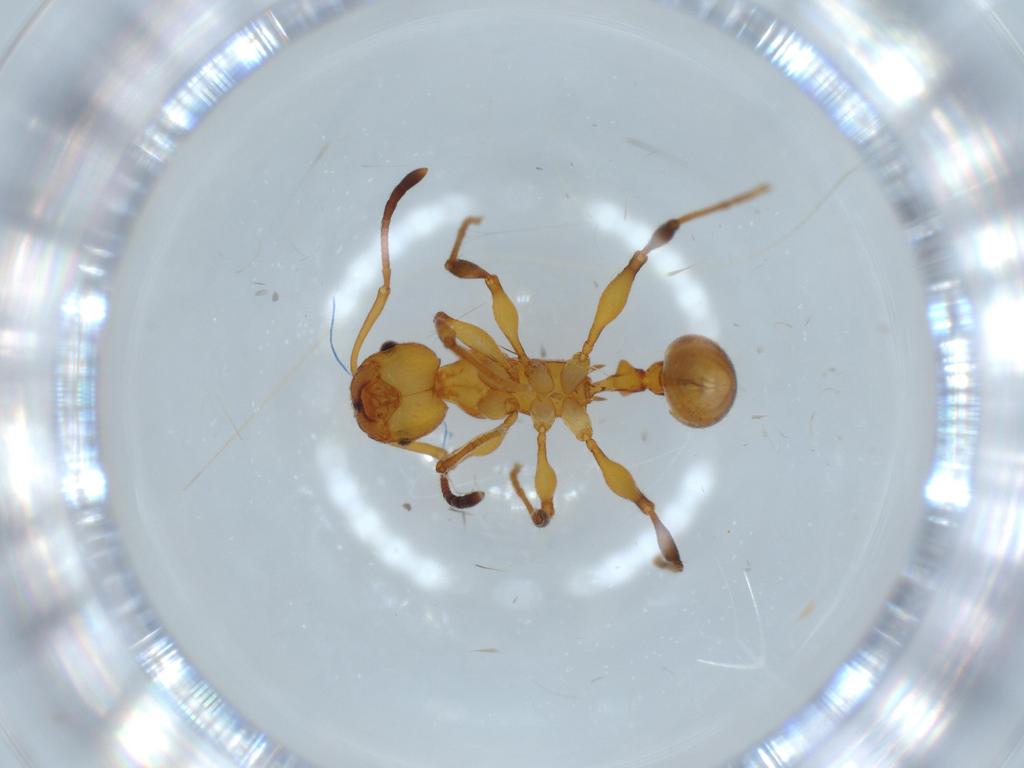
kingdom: Animalia
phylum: Arthropoda
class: Insecta
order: Hymenoptera
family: Formicidae
